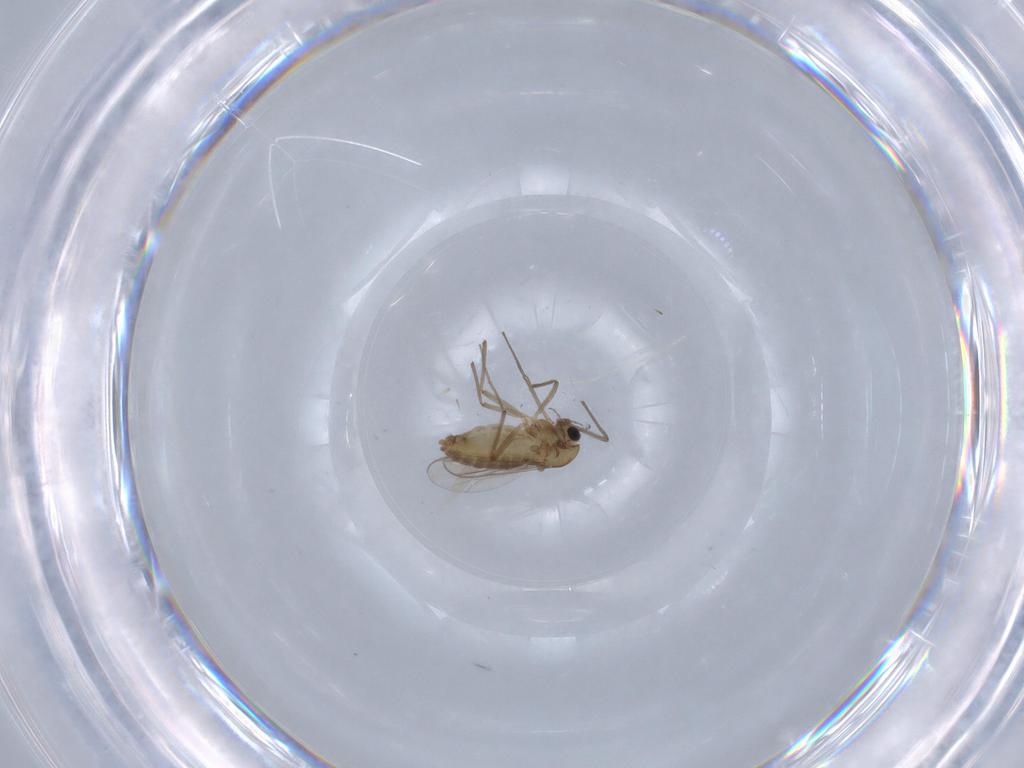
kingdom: Animalia
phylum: Arthropoda
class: Insecta
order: Diptera
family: Chironomidae
